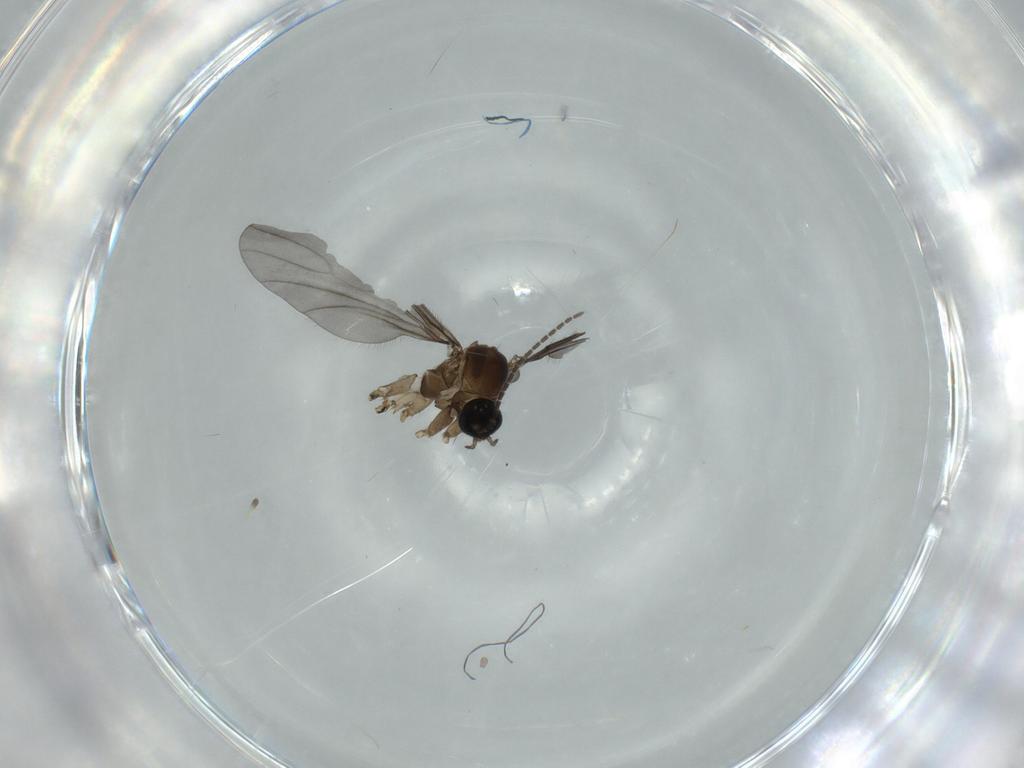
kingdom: Animalia
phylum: Arthropoda
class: Insecta
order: Diptera
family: Sciaridae
